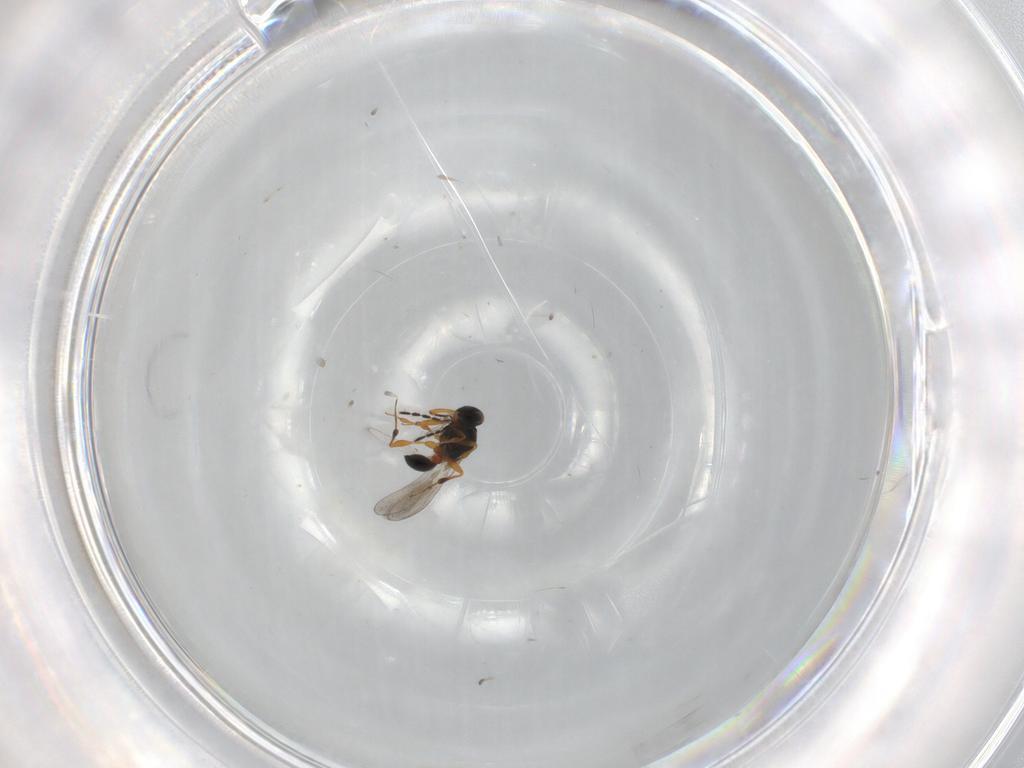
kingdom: Animalia
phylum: Arthropoda
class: Insecta
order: Hymenoptera
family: Platygastridae
